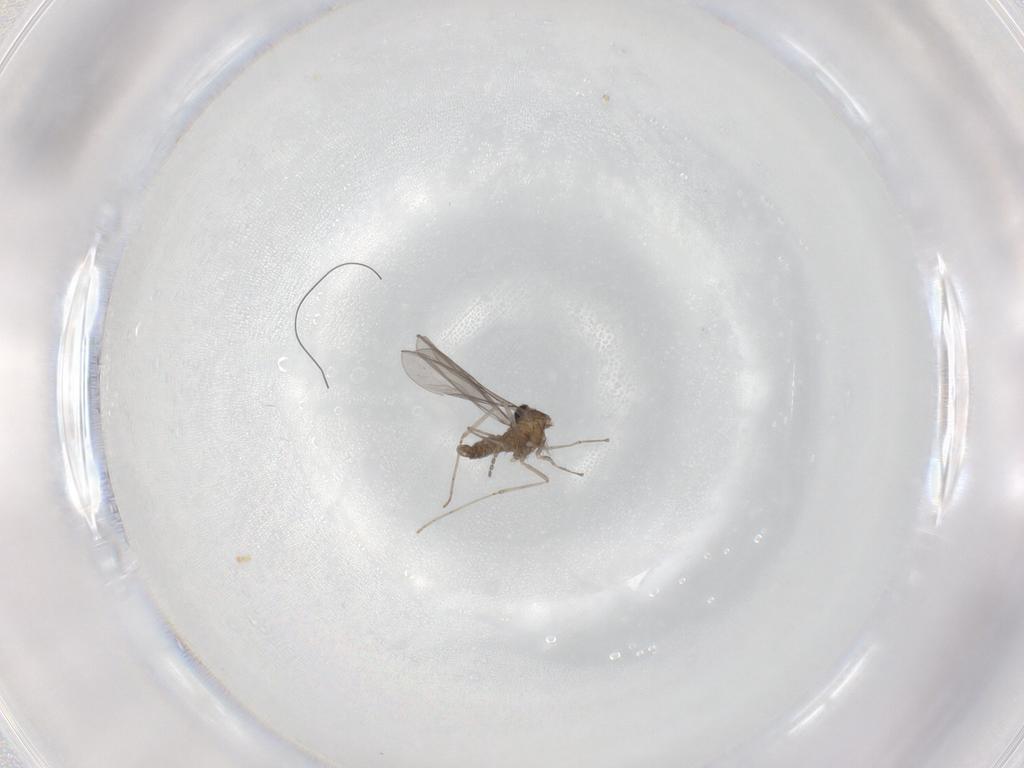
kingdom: Animalia
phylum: Arthropoda
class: Insecta
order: Diptera
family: Cecidomyiidae
